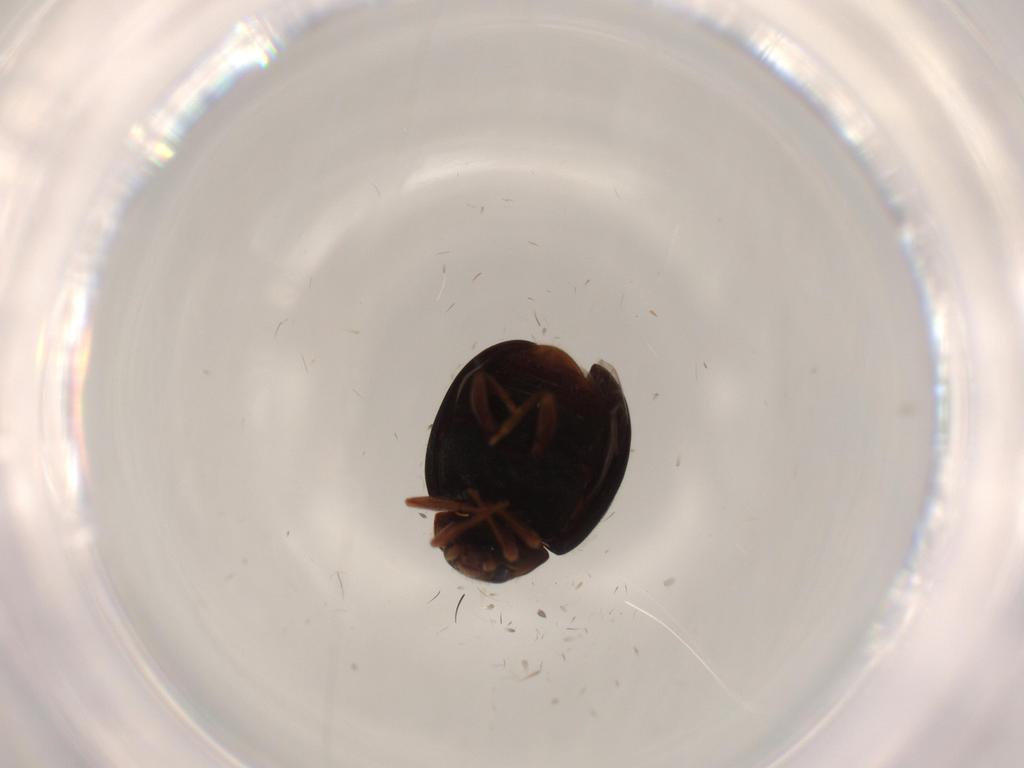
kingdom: Animalia
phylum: Arthropoda
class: Insecta
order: Coleoptera
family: Coccinellidae
